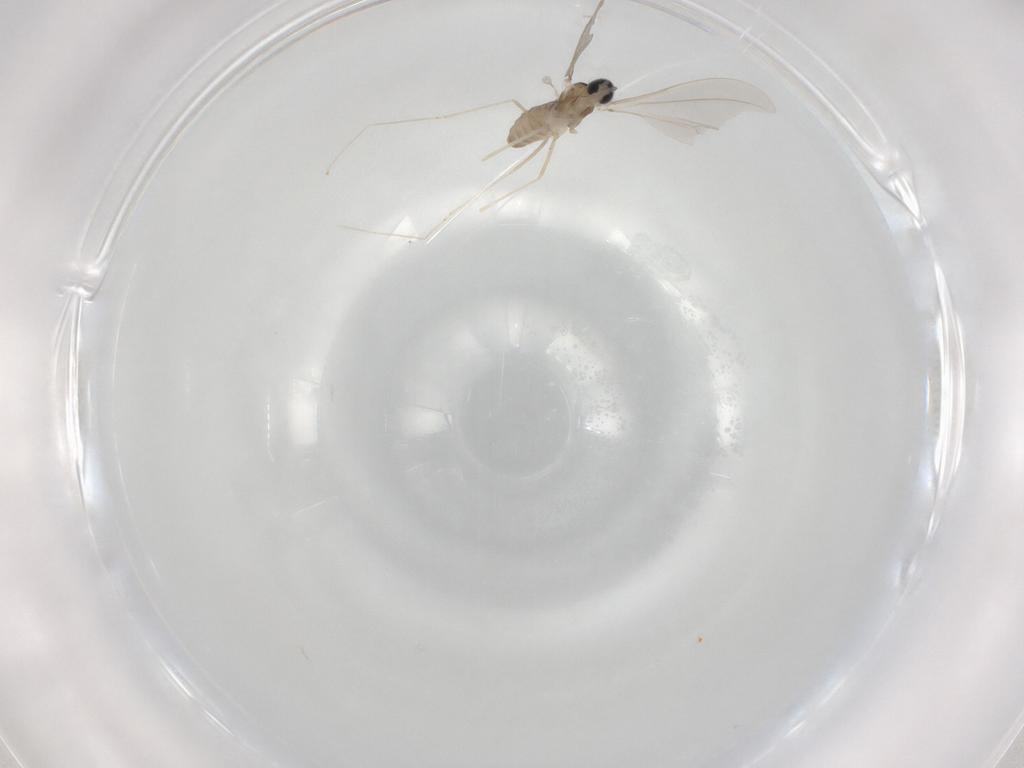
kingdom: Animalia
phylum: Arthropoda
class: Insecta
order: Diptera
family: Cecidomyiidae
